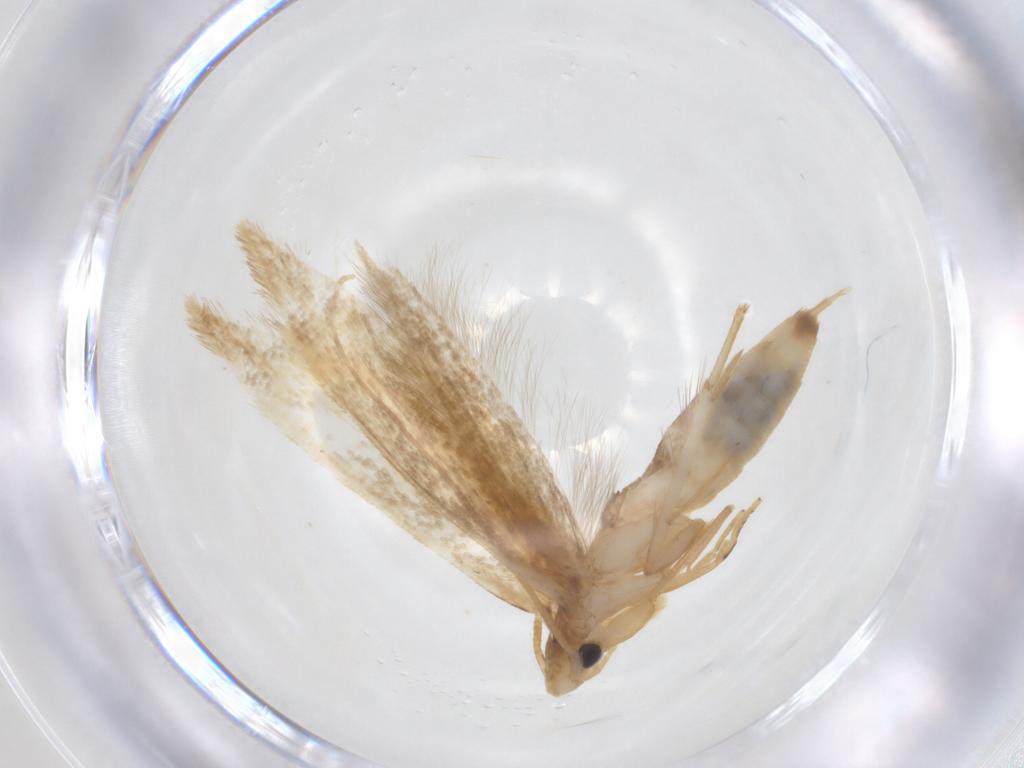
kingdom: Animalia
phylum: Arthropoda
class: Insecta
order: Lepidoptera
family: Tineidae
